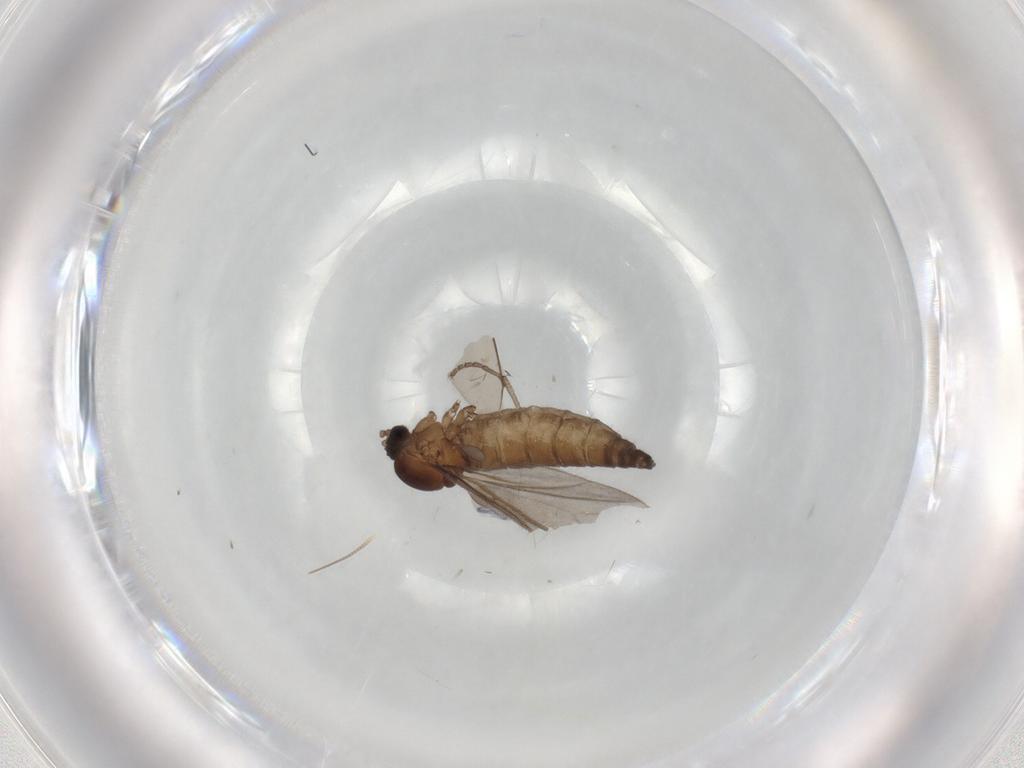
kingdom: Animalia
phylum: Arthropoda
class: Insecta
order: Diptera
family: Sciaridae
